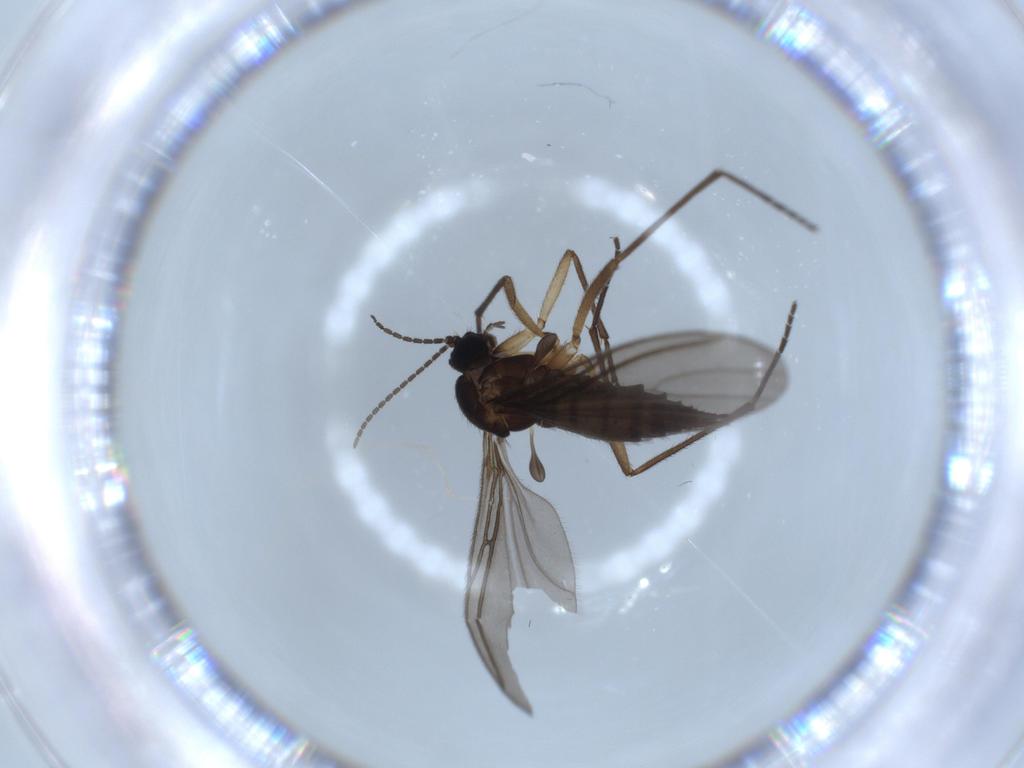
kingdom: Animalia
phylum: Arthropoda
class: Insecta
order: Diptera
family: Sciaridae
